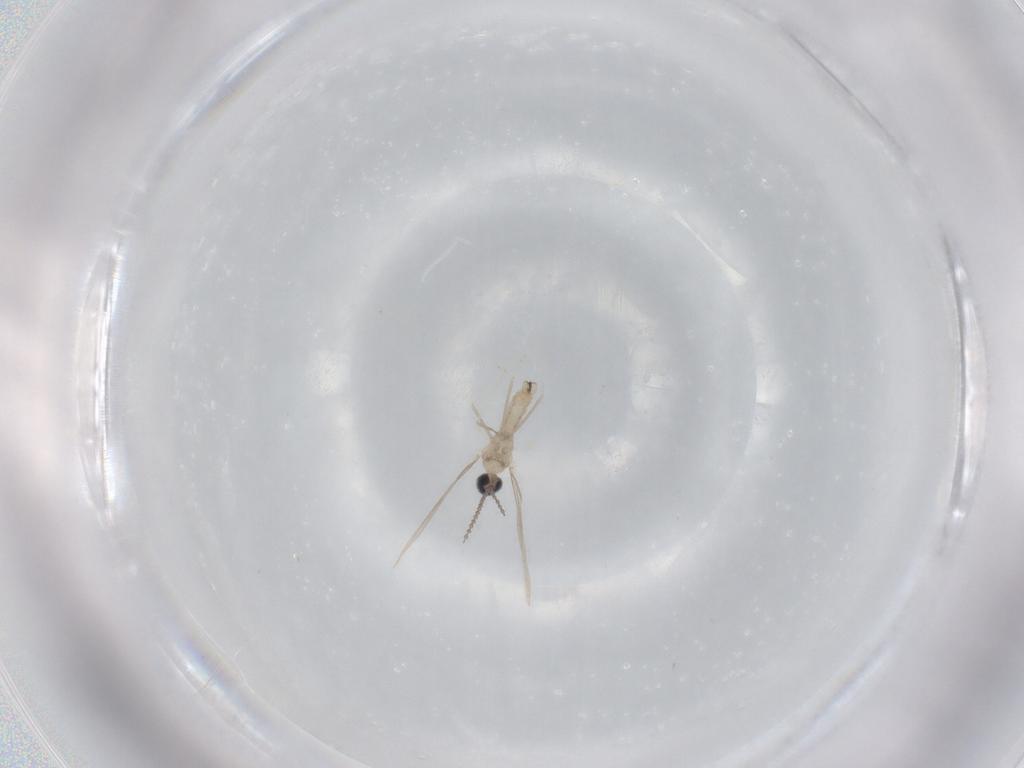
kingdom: Animalia
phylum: Arthropoda
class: Insecta
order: Diptera
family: Cecidomyiidae
